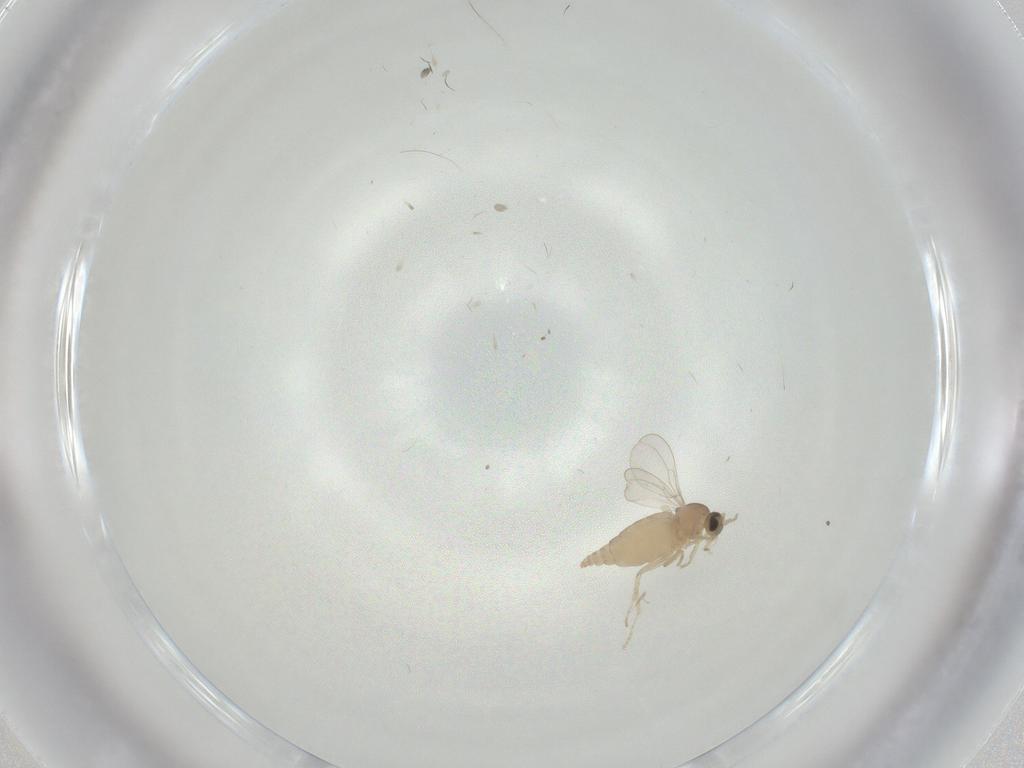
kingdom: Animalia
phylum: Arthropoda
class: Insecta
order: Diptera
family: Cecidomyiidae
